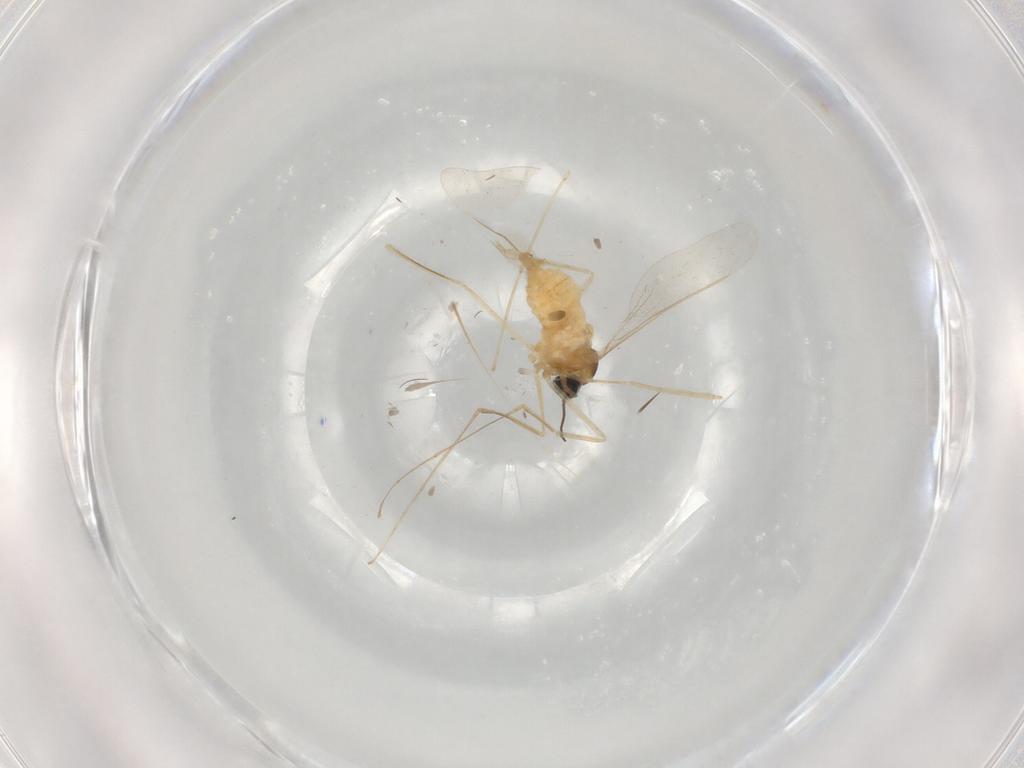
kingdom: Animalia
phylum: Arthropoda
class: Insecta
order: Diptera
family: Cecidomyiidae
